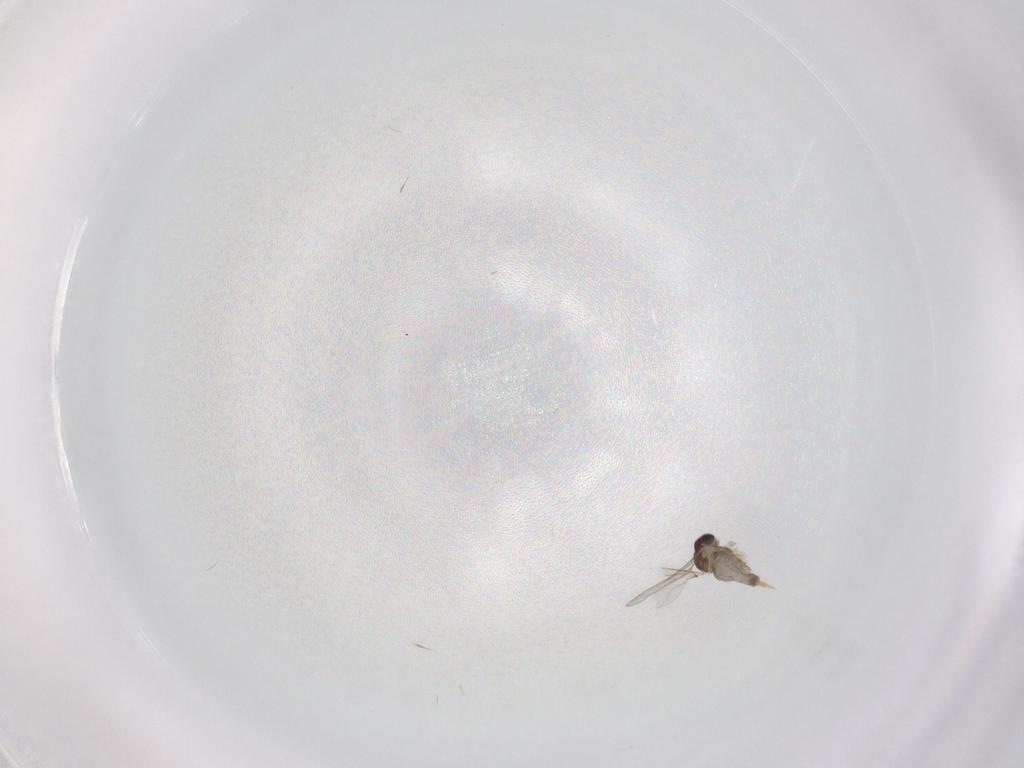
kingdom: Animalia
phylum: Arthropoda
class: Insecta
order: Diptera
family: Cecidomyiidae
